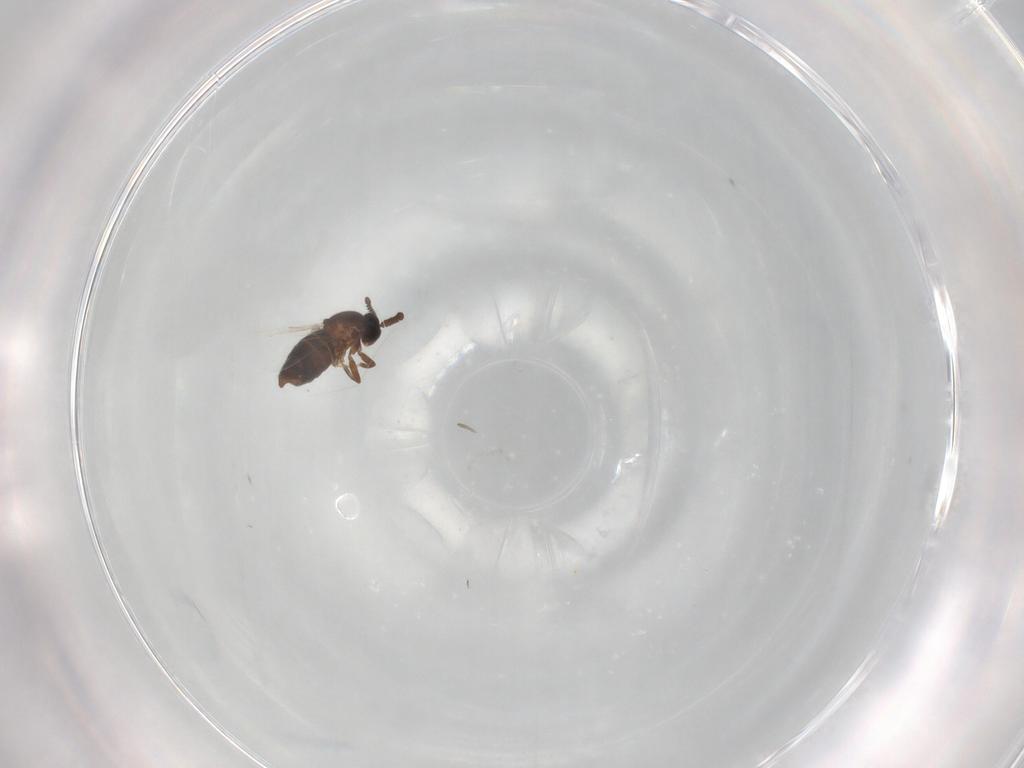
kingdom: Animalia
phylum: Arthropoda
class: Insecta
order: Diptera
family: Scatopsidae
